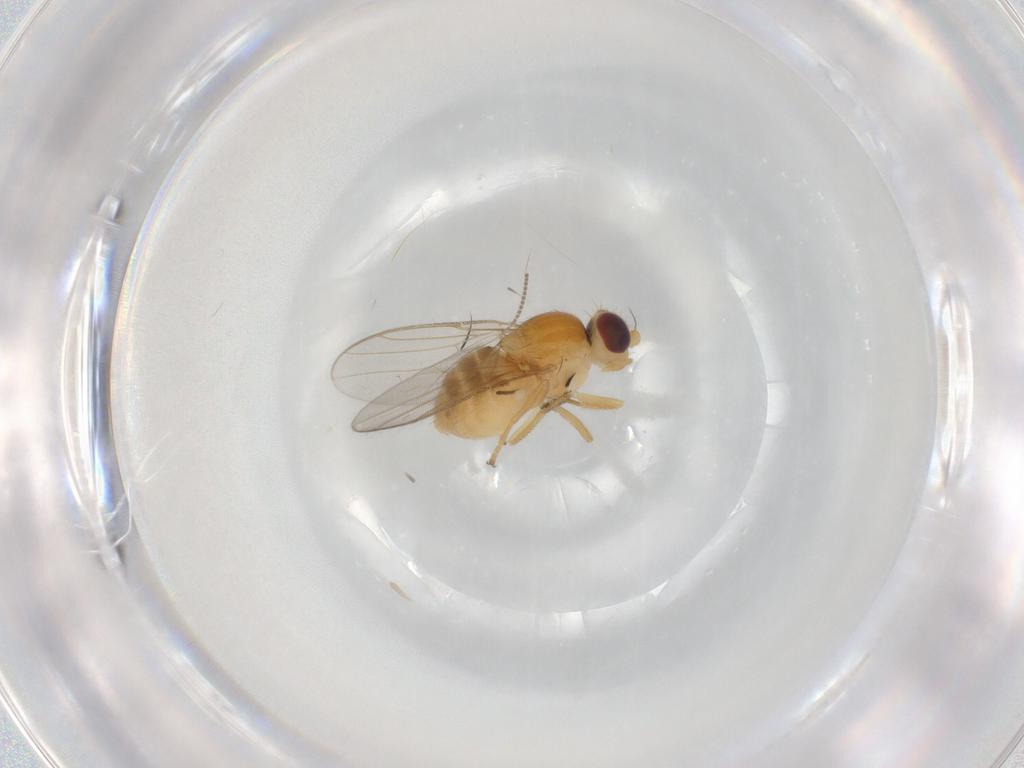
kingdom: Animalia
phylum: Arthropoda
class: Insecta
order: Diptera
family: Chloropidae
